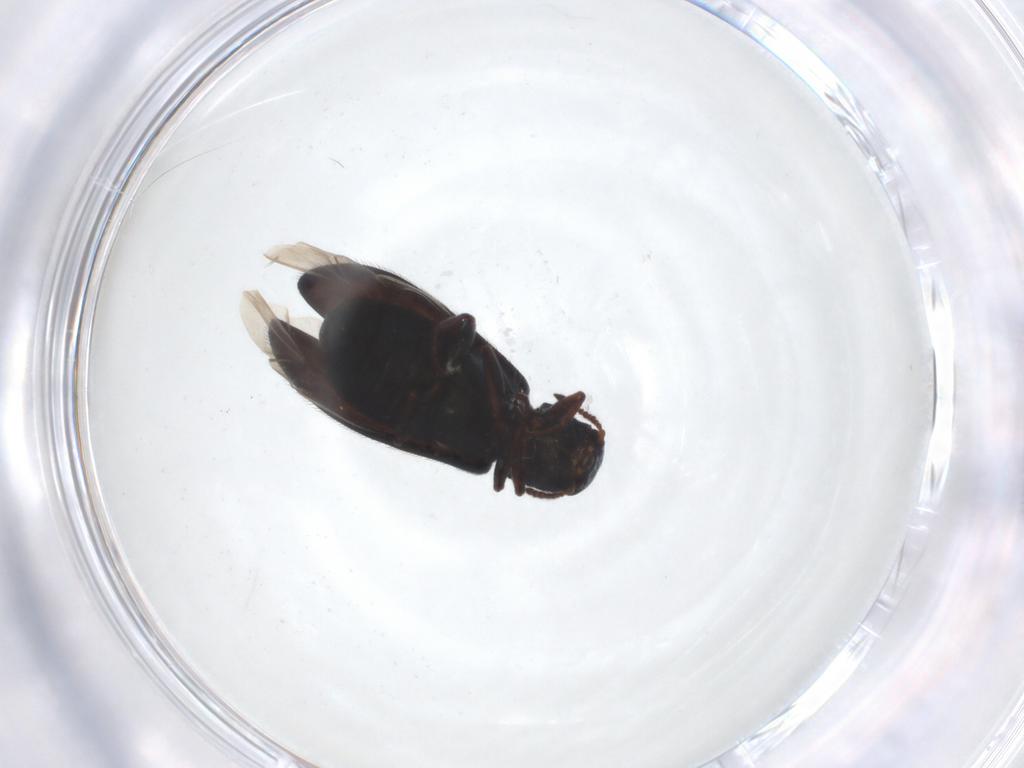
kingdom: Animalia
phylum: Arthropoda
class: Insecta
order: Coleoptera
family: Melyridae
